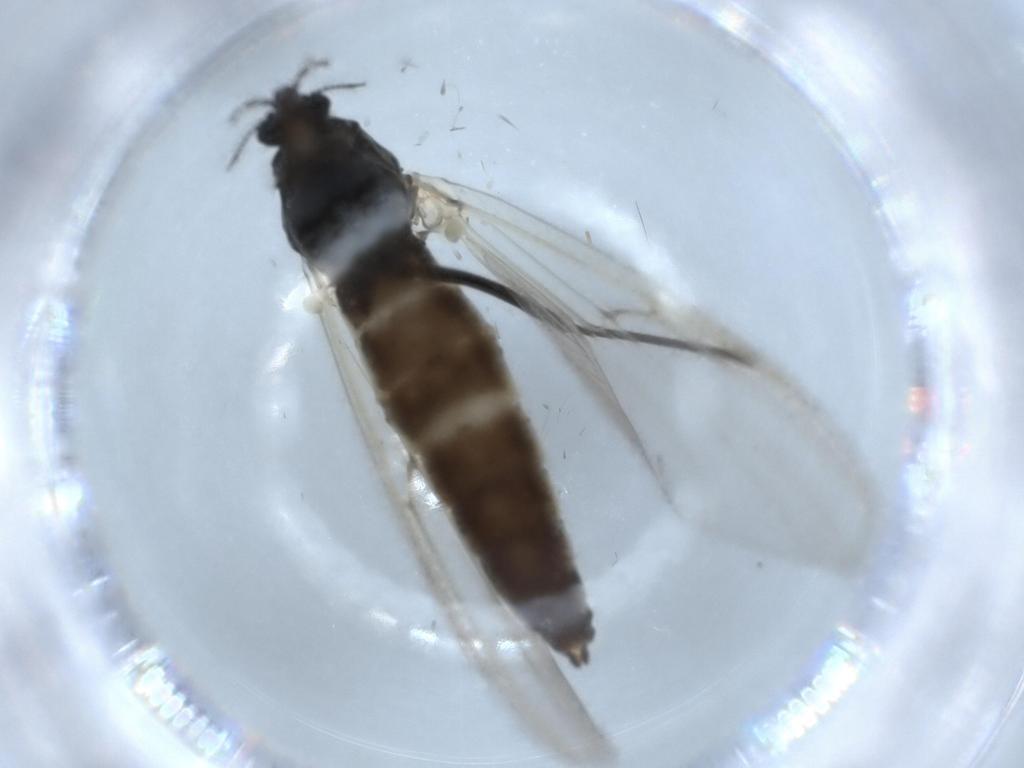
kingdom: Animalia
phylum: Arthropoda
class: Insecta
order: Diptera
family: Chironomidae
